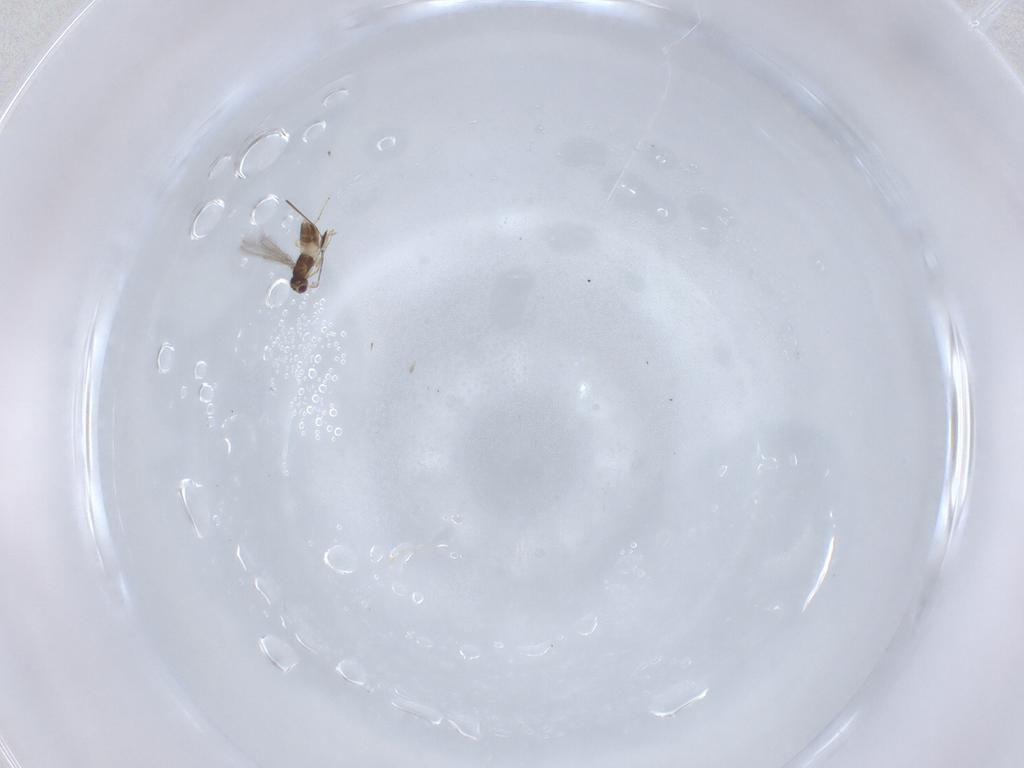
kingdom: Animalia
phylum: Arthropoda
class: Insecta
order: Hymenoptera
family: Mymaridae
